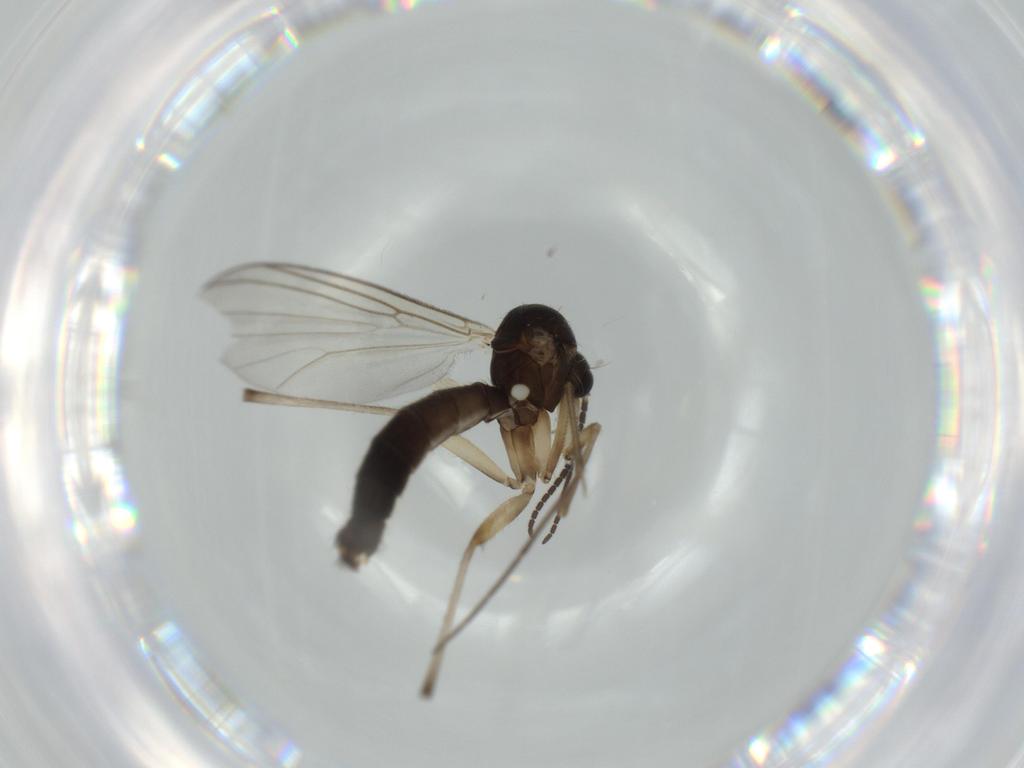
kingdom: Animalia
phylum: Arthropoda
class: Insecta
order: Diptera
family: Phoridae
